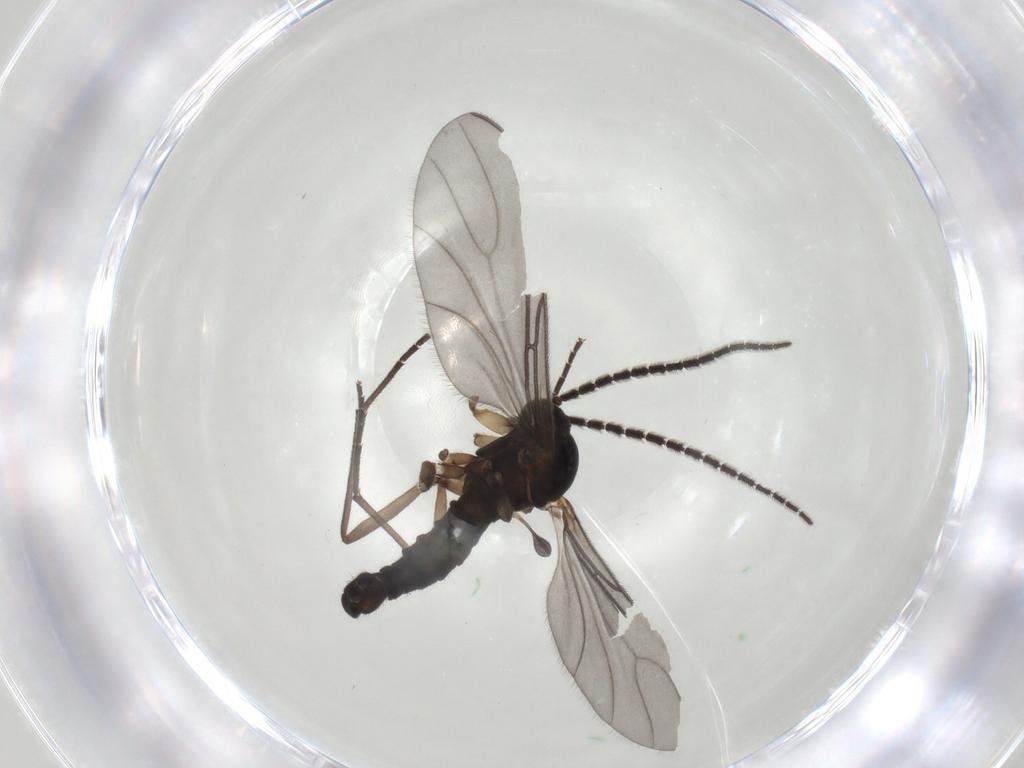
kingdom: Animalia
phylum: Arthropoda
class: Insecta
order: Diptera
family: Sciaridae
